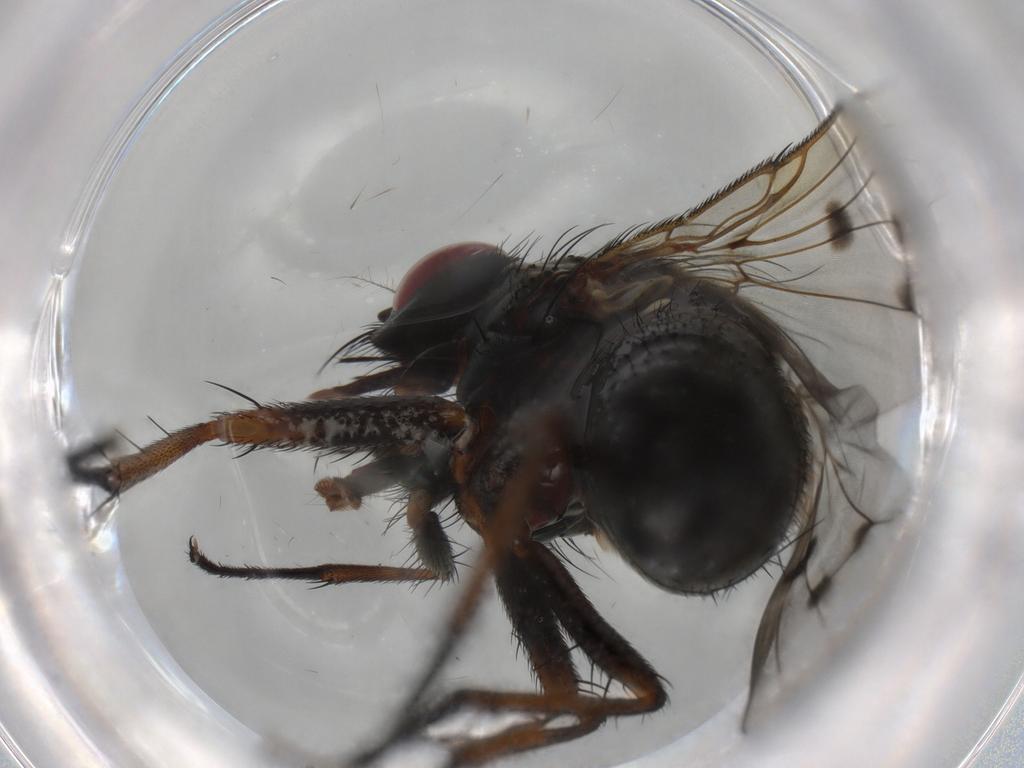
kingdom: Animalia
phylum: Arthropoda
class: Insecta
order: Diptera
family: Muscidae
